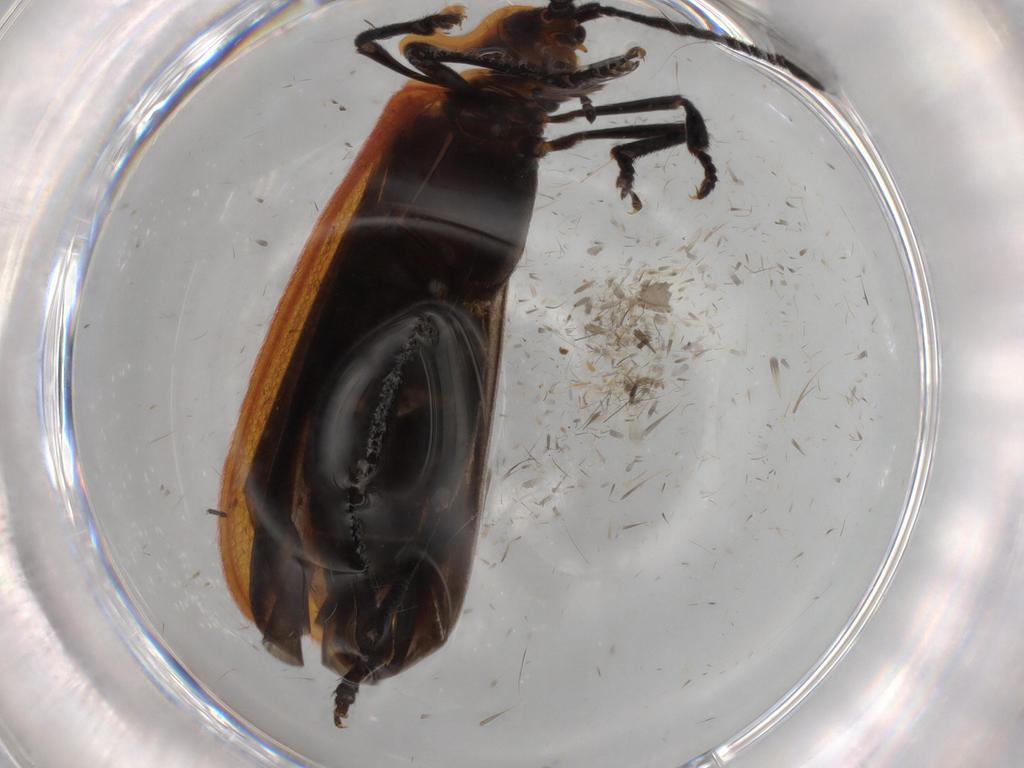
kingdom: Animalia
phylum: Arthropoda
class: Insecta
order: Coleoptera
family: Lycidae
